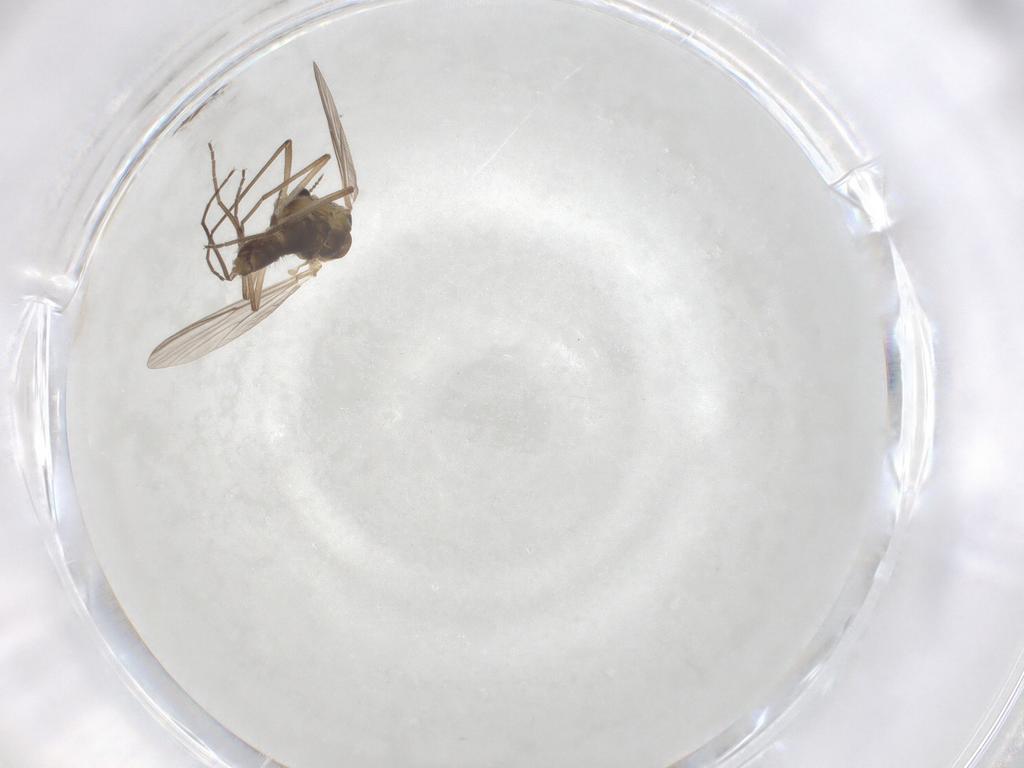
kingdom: Animalia
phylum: Arthropoda
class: Insecta
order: Diptera
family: Chironomidae
